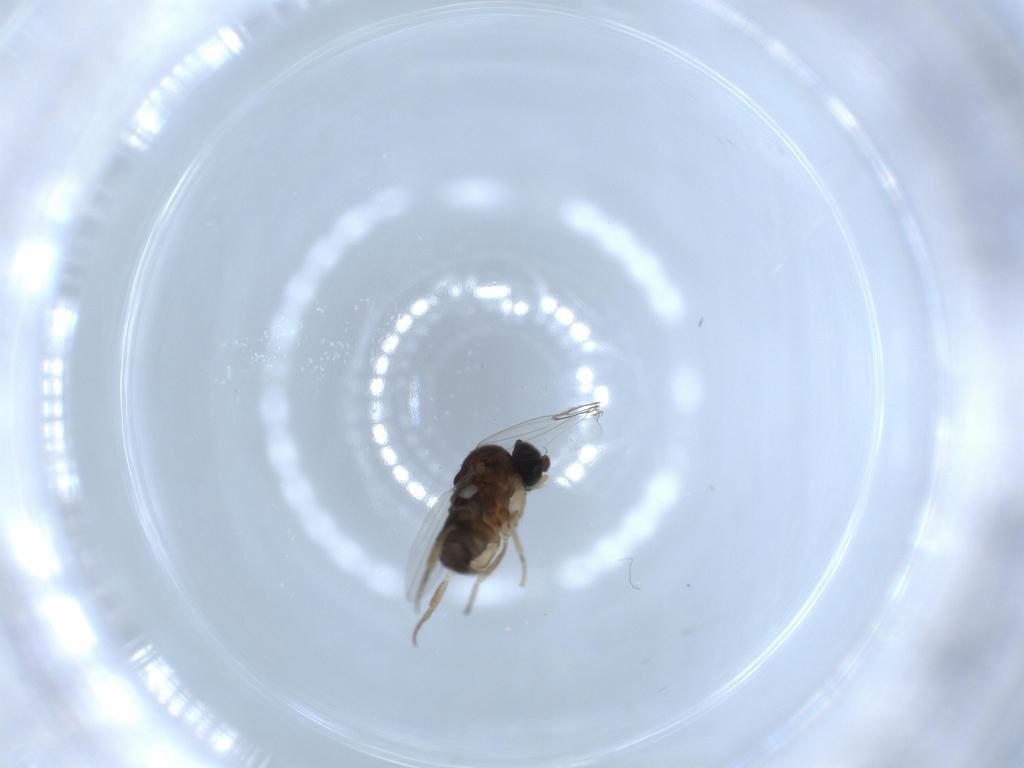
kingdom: Animalia
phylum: Arthropoda
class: Insecta
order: Diptera
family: Phoridae
